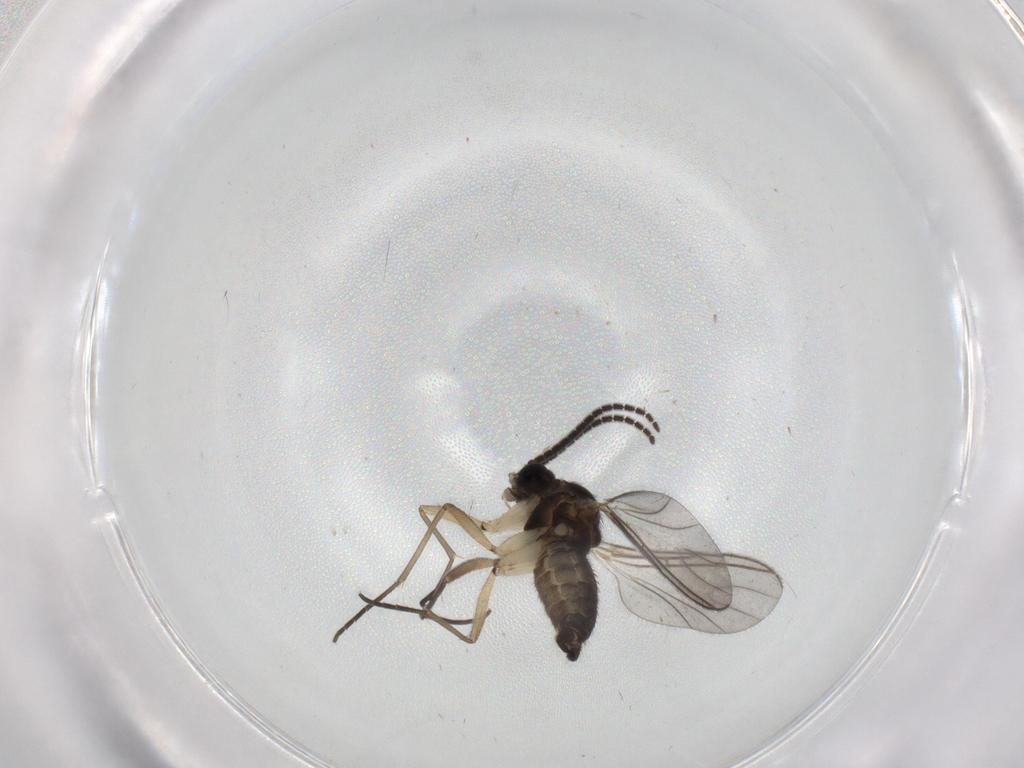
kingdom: Animalia
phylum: Arthropoda
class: Insecta
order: Diptera
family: Sciaridae
